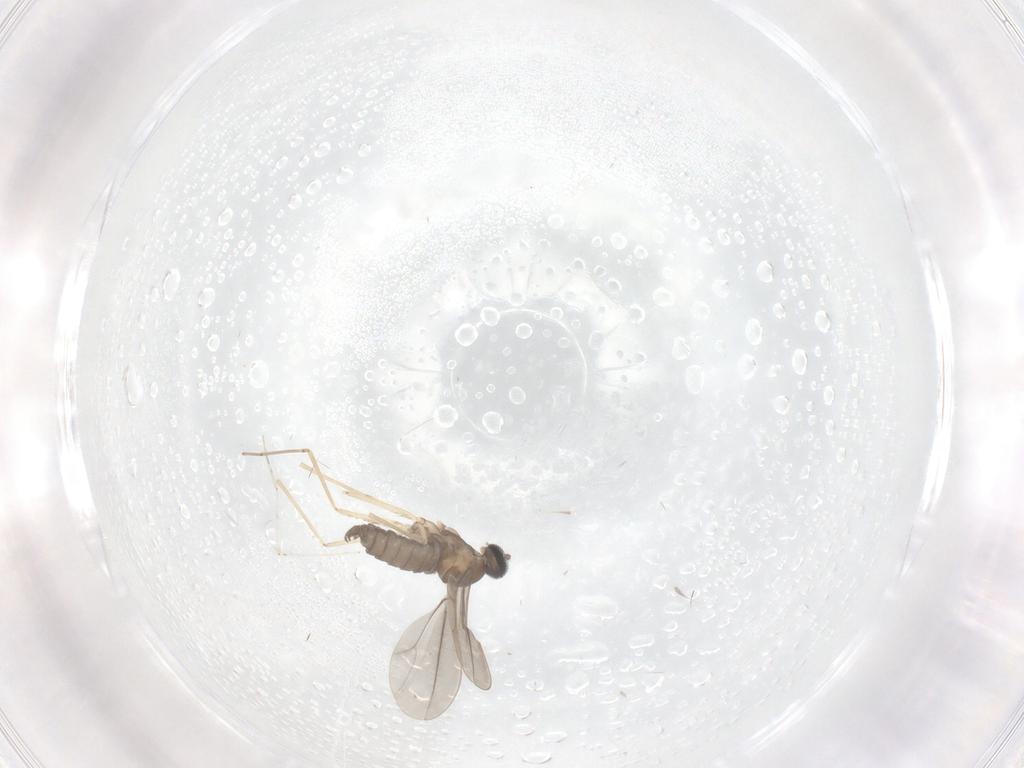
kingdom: Animalia
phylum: Arthropoda
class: Insecta
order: Diptera
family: Cecidomyiidae
